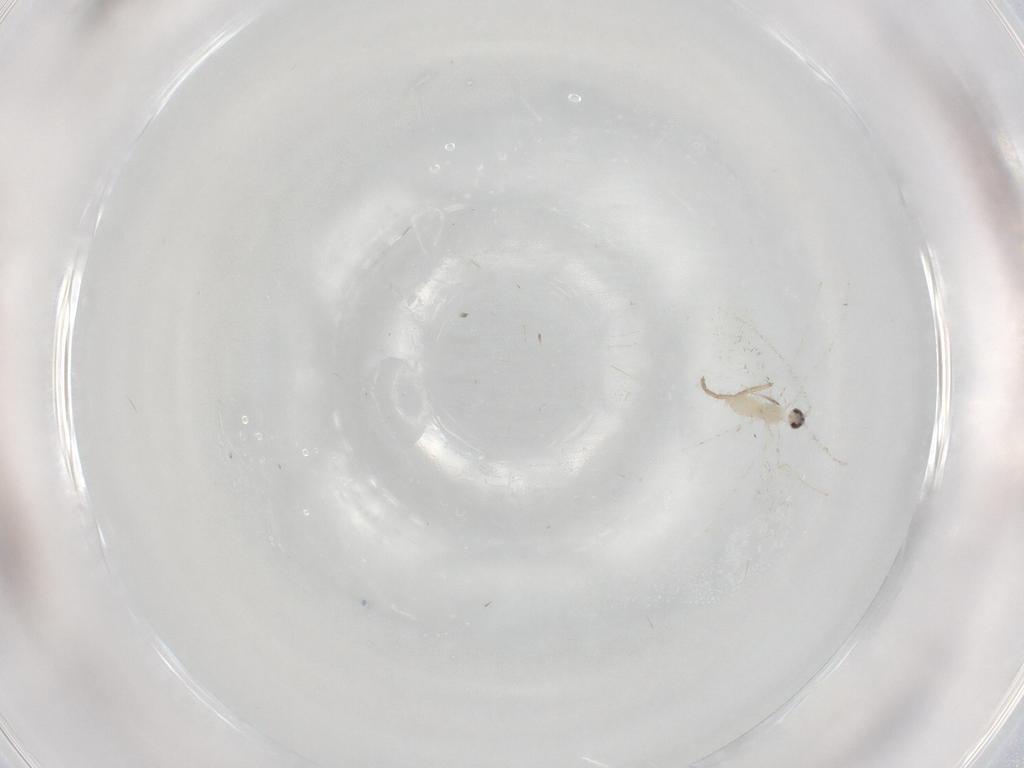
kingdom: Animalia
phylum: Arthropoda
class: Insecta
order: Diptera
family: Cecidomyiidae
